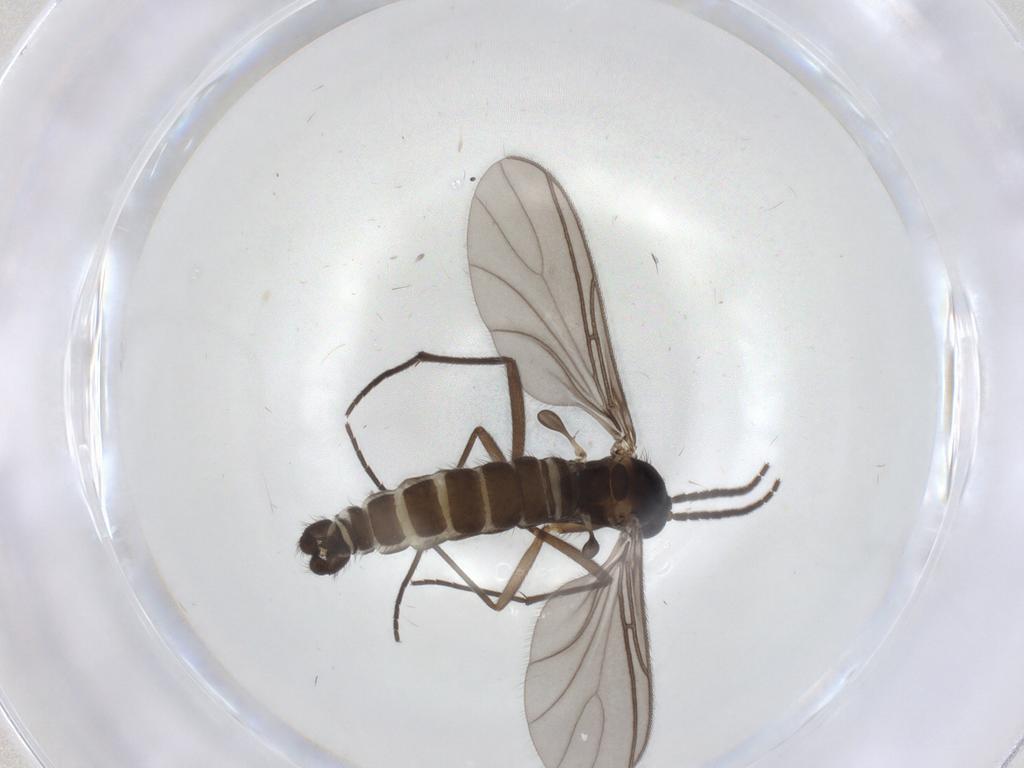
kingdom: Animalia
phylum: Arthropoda
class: Insecta
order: Diptera
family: Sciaridae
